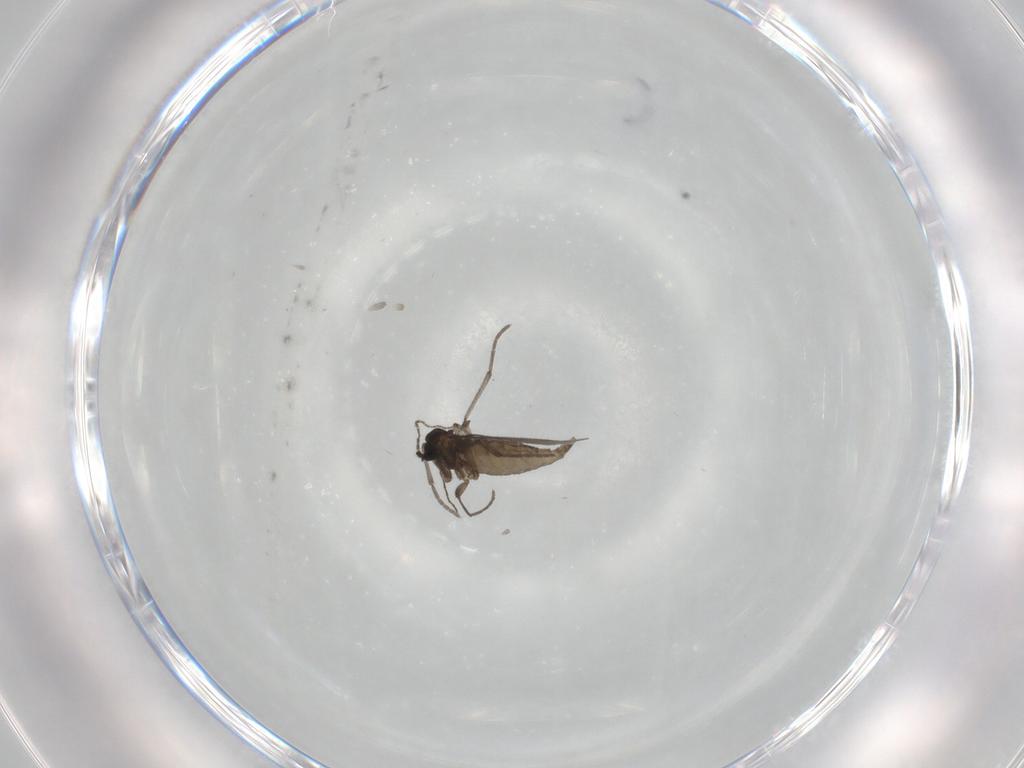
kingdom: Animalia
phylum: Arthropoda
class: Insecta
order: Diptera
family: Sciaridae
